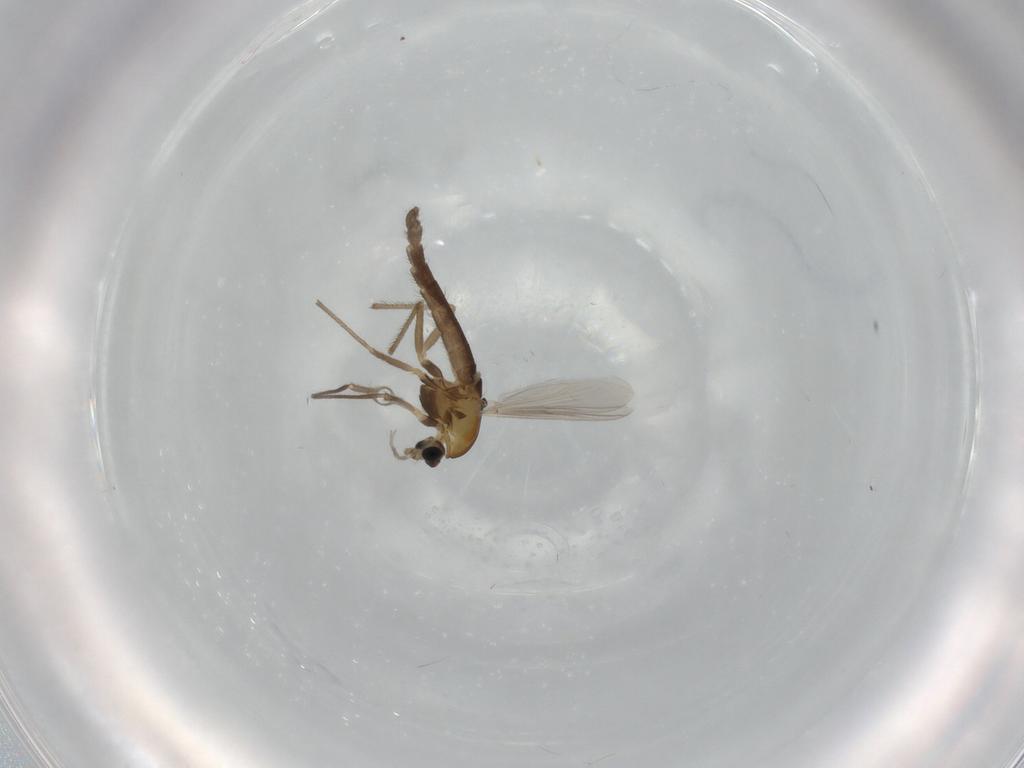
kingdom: Animalia
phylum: Arthropoda
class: Insecta
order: Diptera
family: Chironomidae
